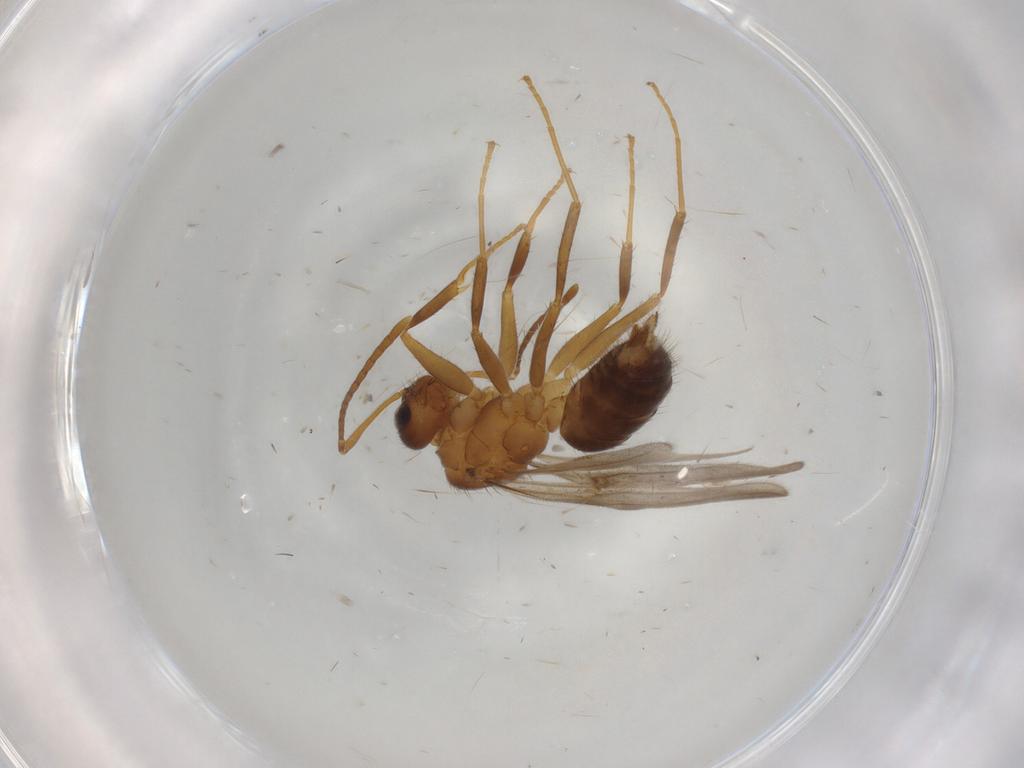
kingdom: Animalia
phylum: Arthropoda
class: Insecta
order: Hymenoptera
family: Formicidae
